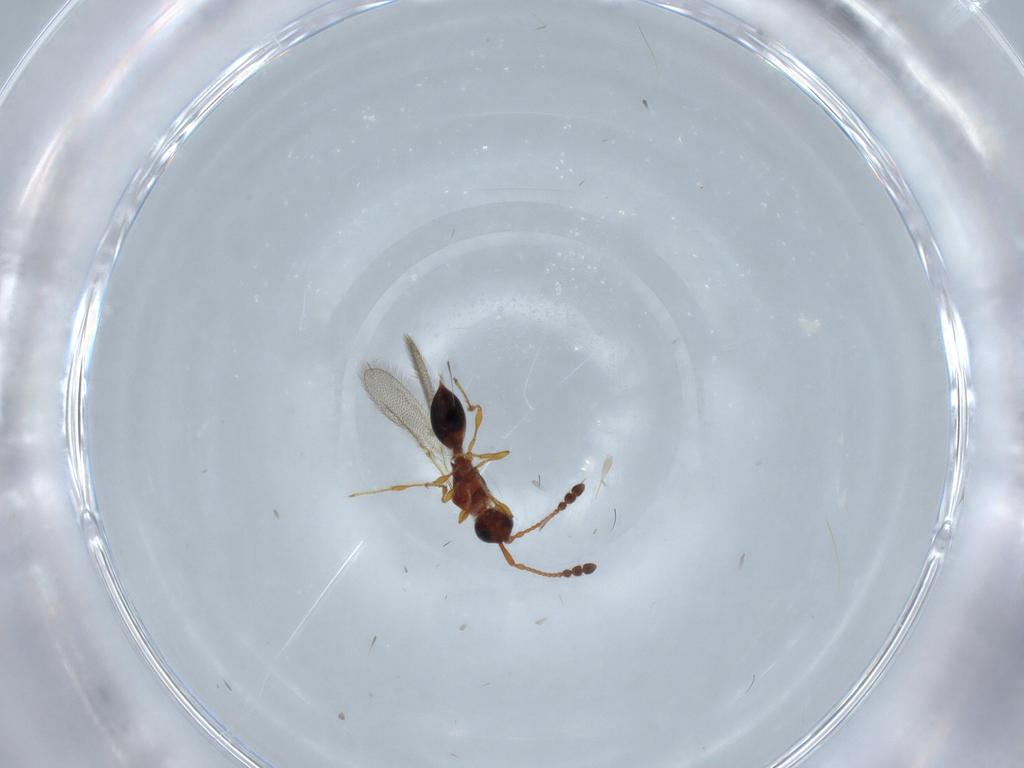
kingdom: Animalia
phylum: Arthropoda
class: Insecta
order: Hymenoptera
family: Diapriidae
